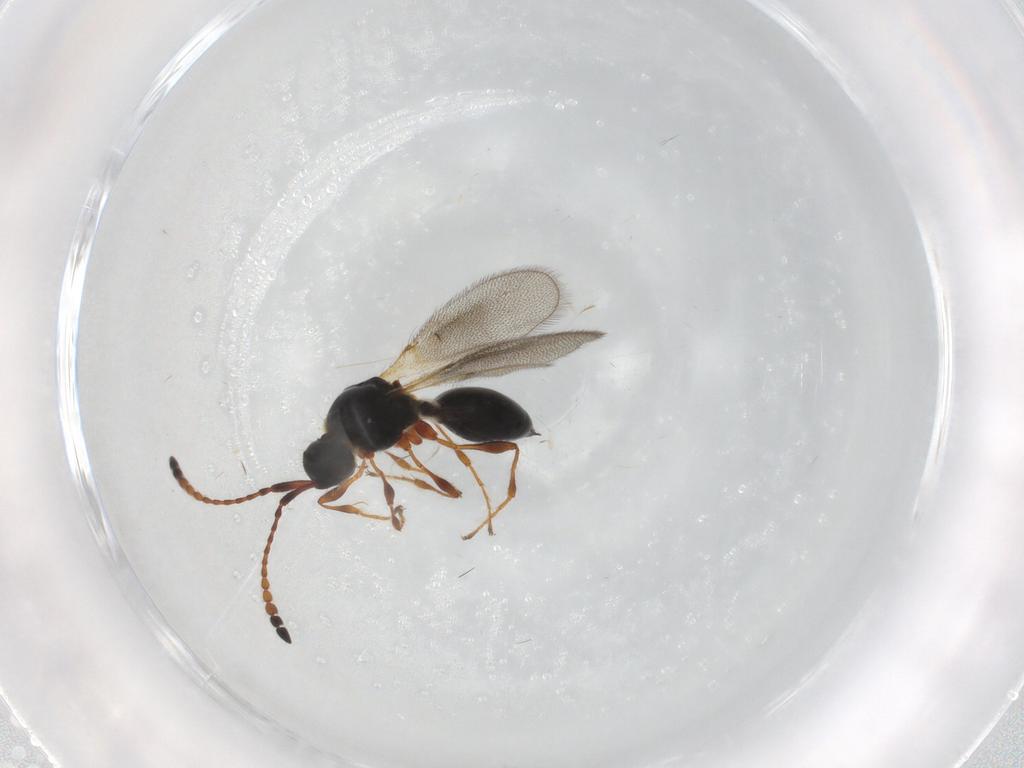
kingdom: Animalia
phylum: Arthropoda
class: Insecta
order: Hymenoptera
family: Diapriidae
